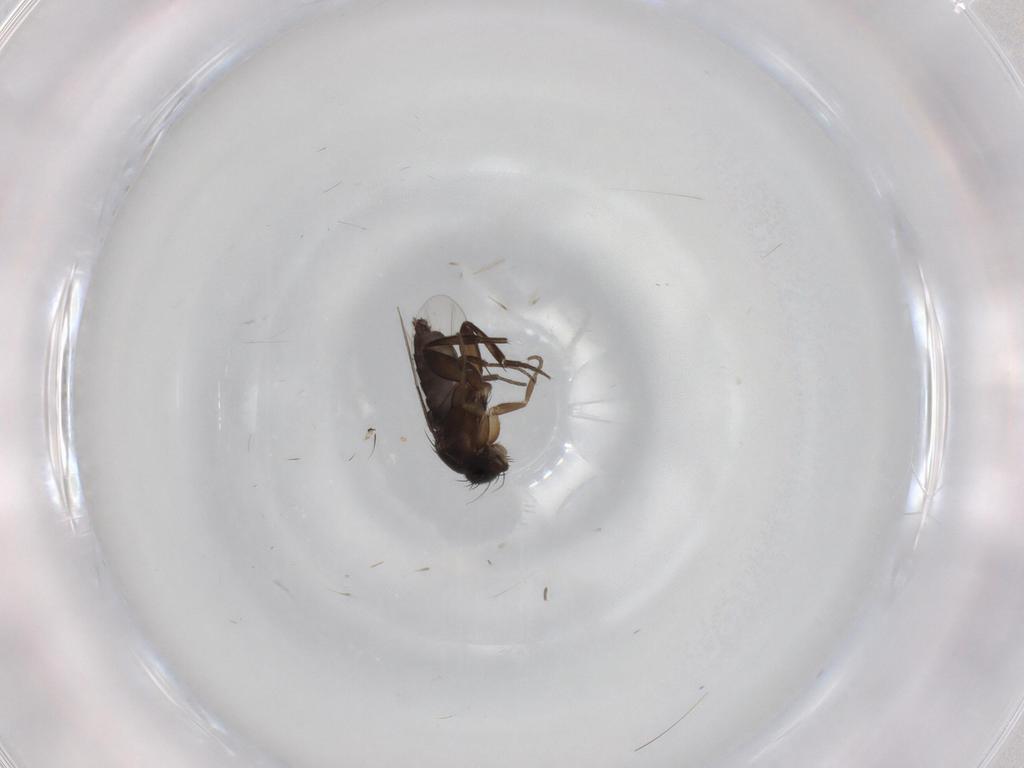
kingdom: Animalia
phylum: Arthropoda
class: Insecta
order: Diptera
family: Phoridae
